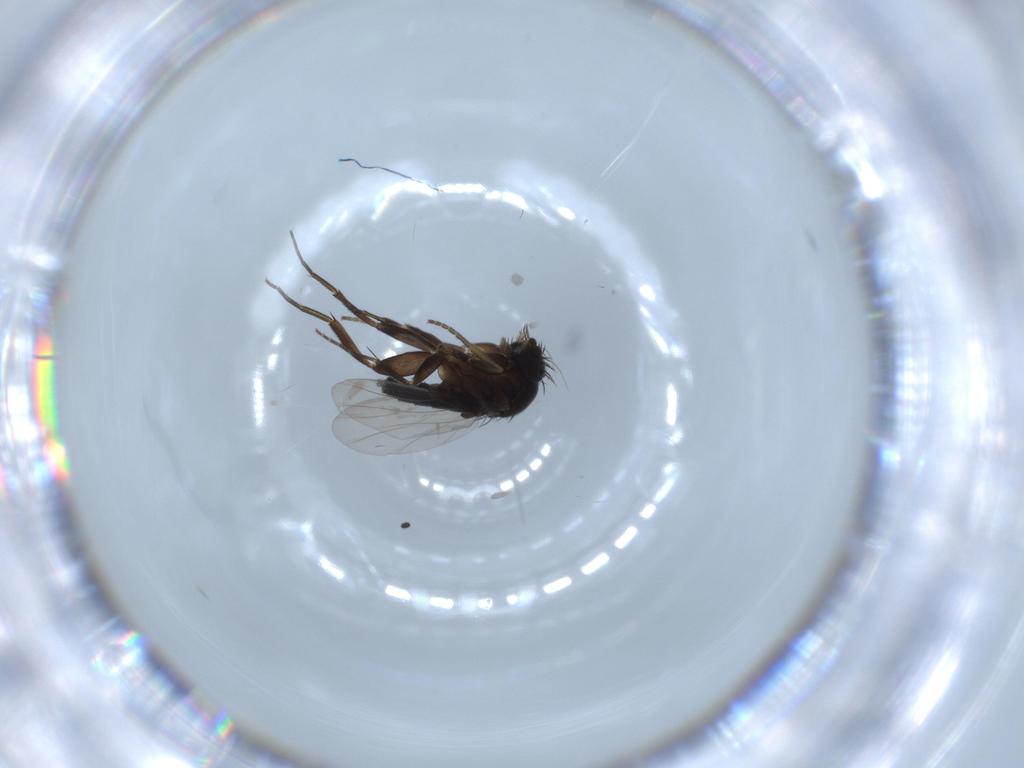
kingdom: Animalia
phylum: Arthropoda
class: Insecta
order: Diptera
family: Phoridae
